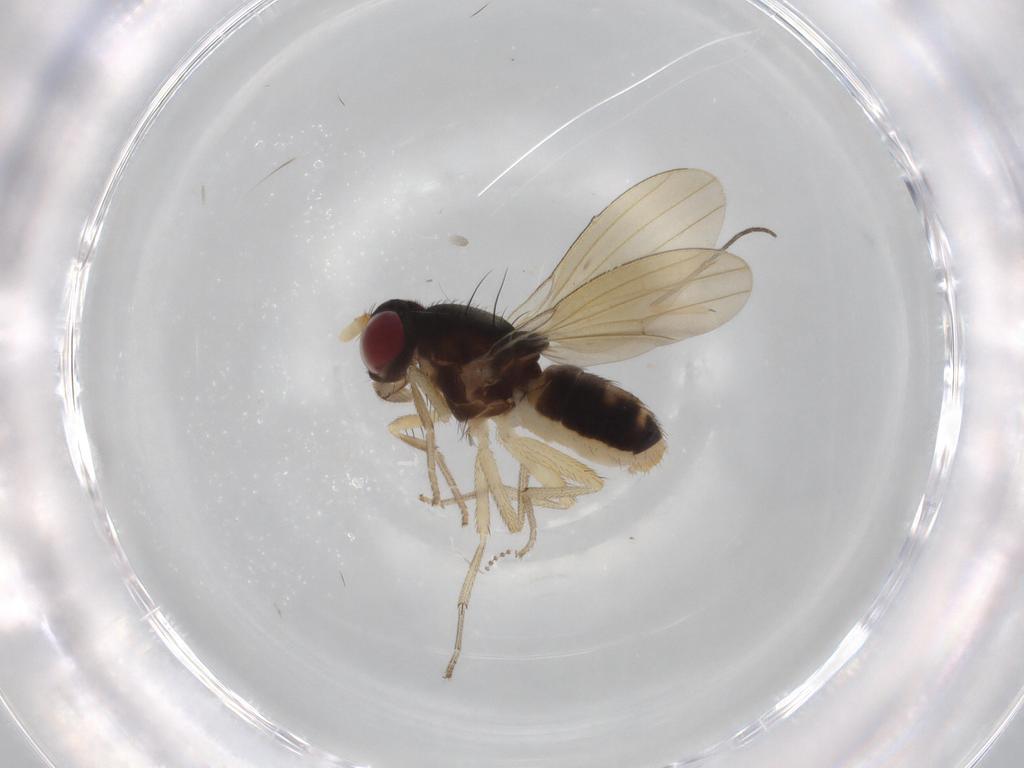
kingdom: Animalia
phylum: Arthropoda
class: Insecta
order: Diptera
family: Lauxaniidae
